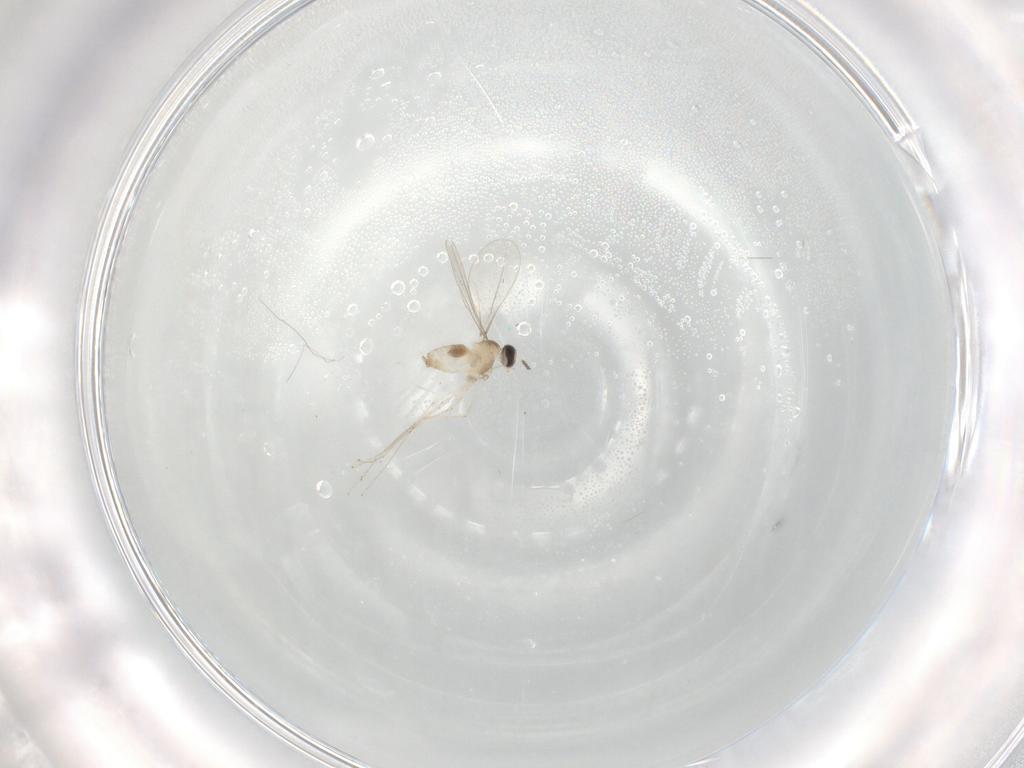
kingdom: Animalia
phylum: Arthropoda
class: Insecta
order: Diptera
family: Cecidomyiidae
